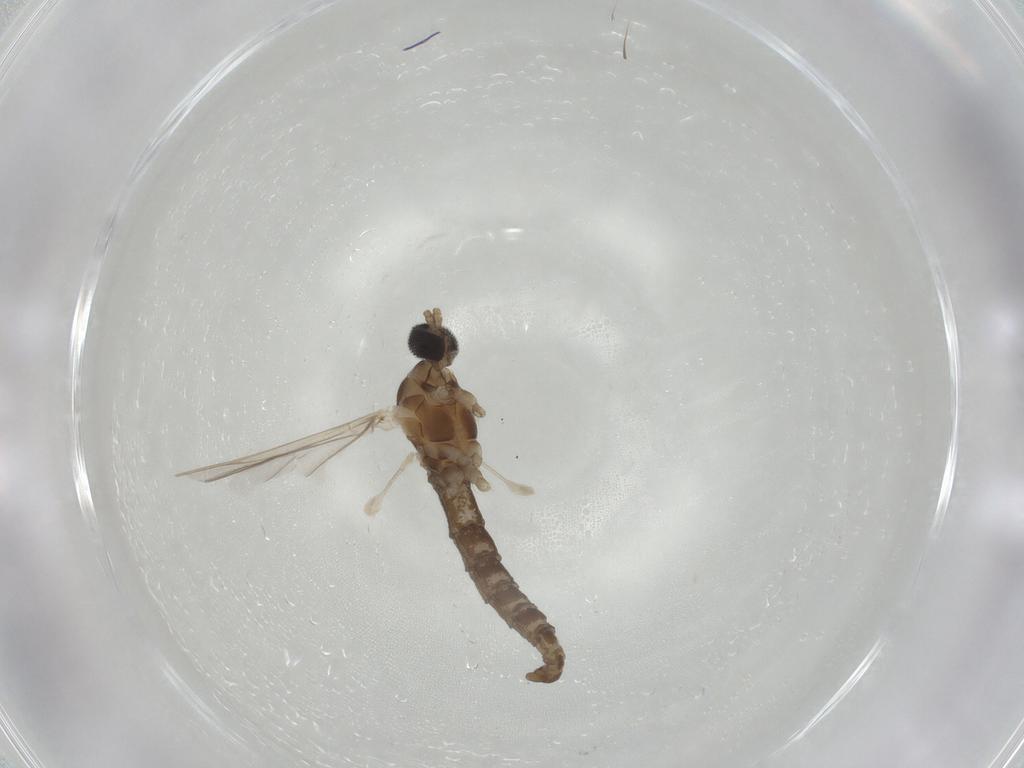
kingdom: Animalia
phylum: Arthropoda
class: Insecta
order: Diptera
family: Cecidomyiidae
